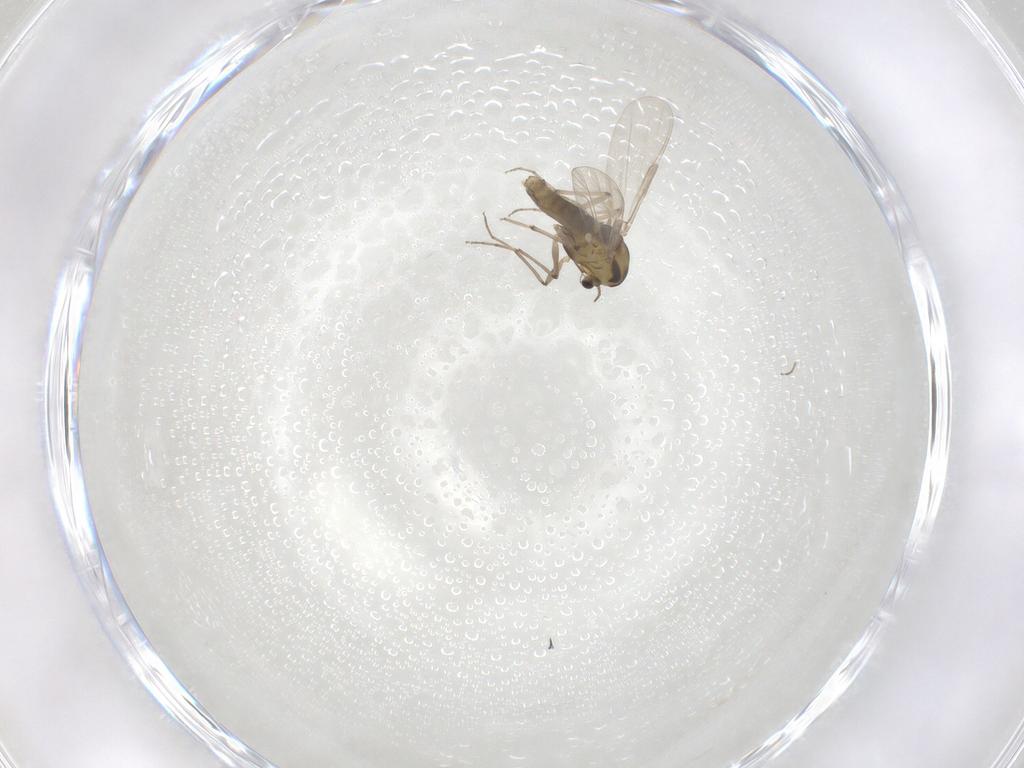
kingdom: Animalia
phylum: Arthropoda
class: Insecta
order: Diptera
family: Chironomidae
